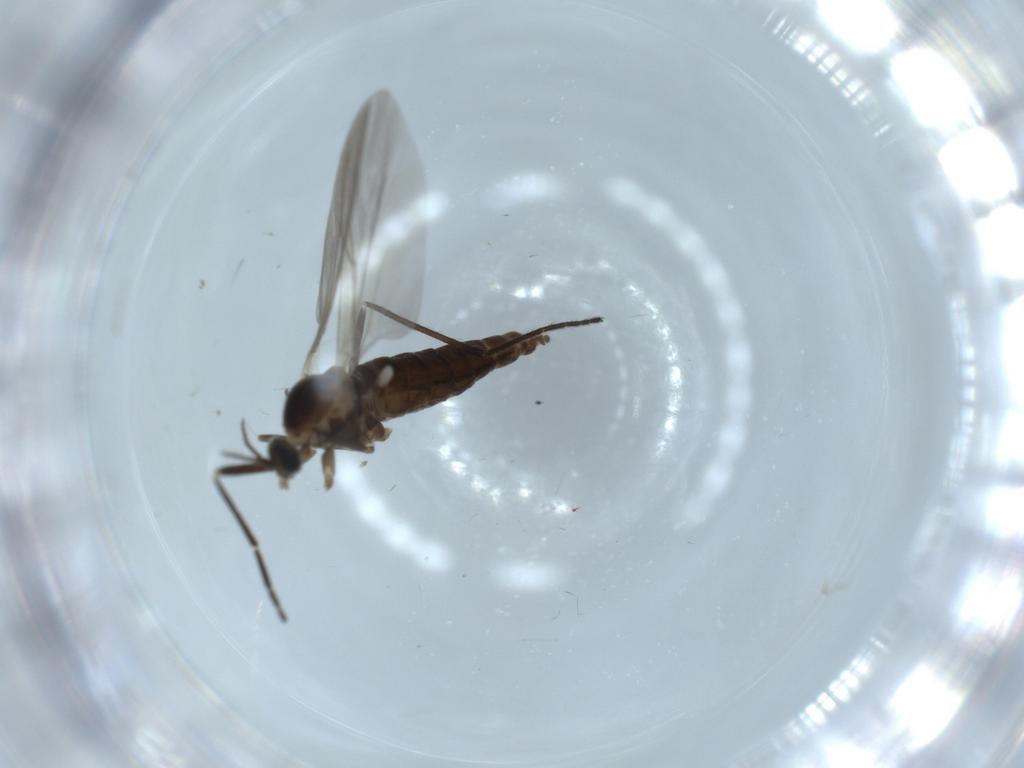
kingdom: Animalia
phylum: Arthropoda
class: Insecta
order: Diptera
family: Cecidomyiidae
